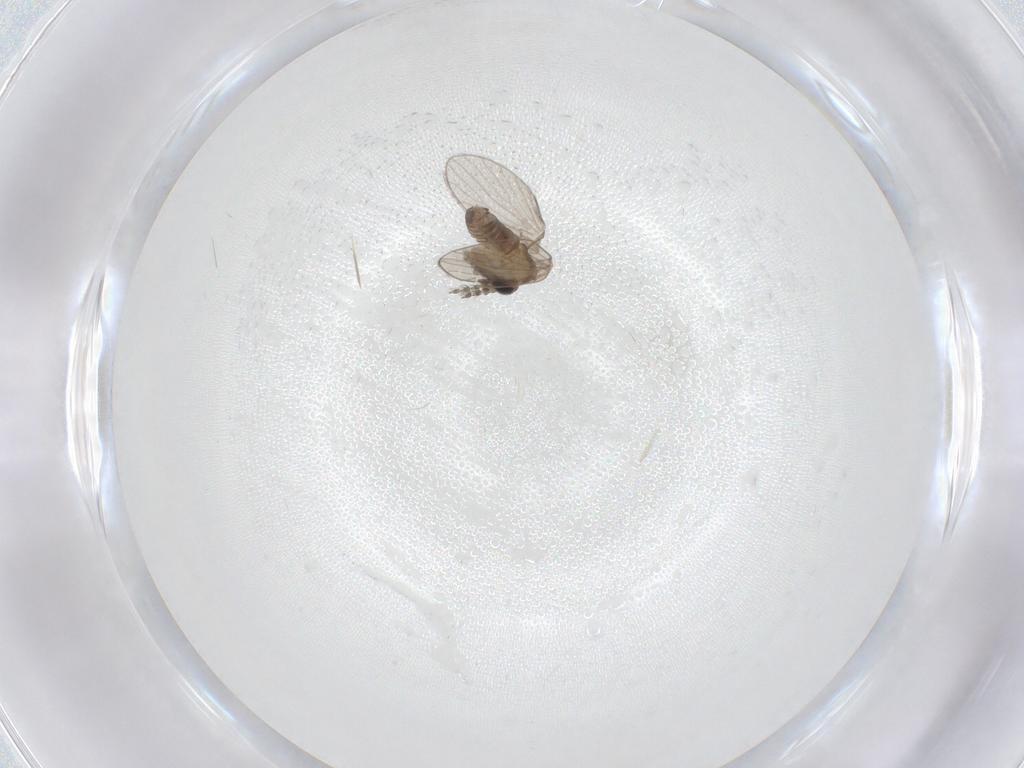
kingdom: Animalia
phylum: Arthropoda
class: Insecta
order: Diptera
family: Psychodidae
